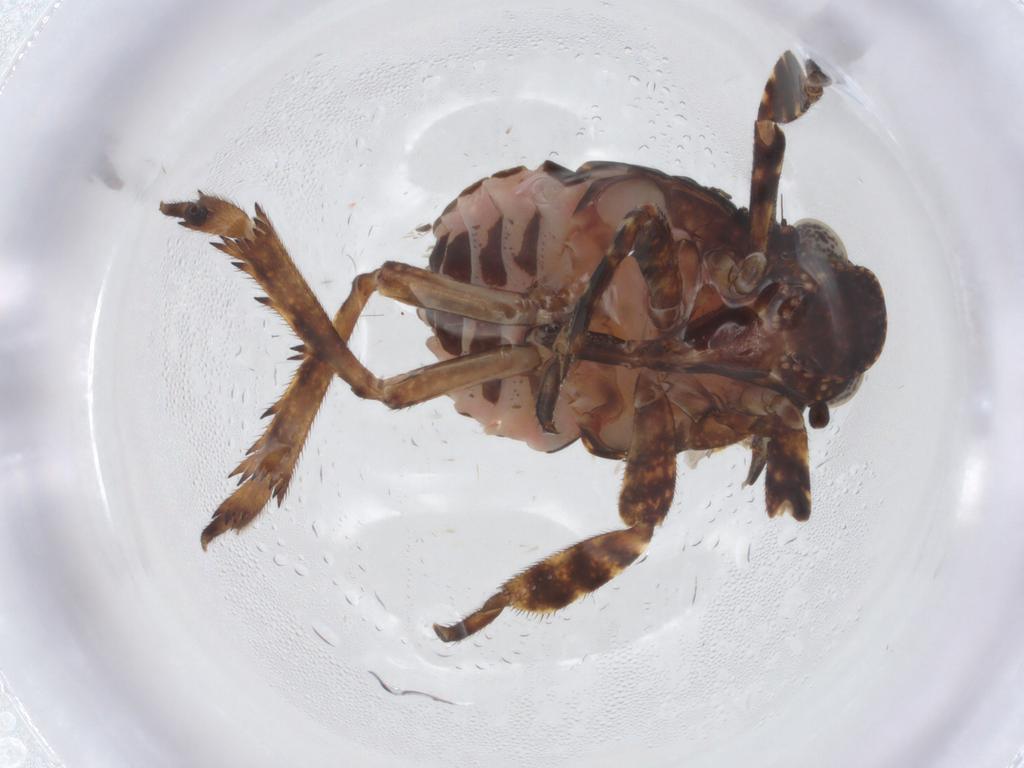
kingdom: Animalia
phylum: Arthropoda
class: Insecta
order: Hemiptera
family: Eurybrachidae
